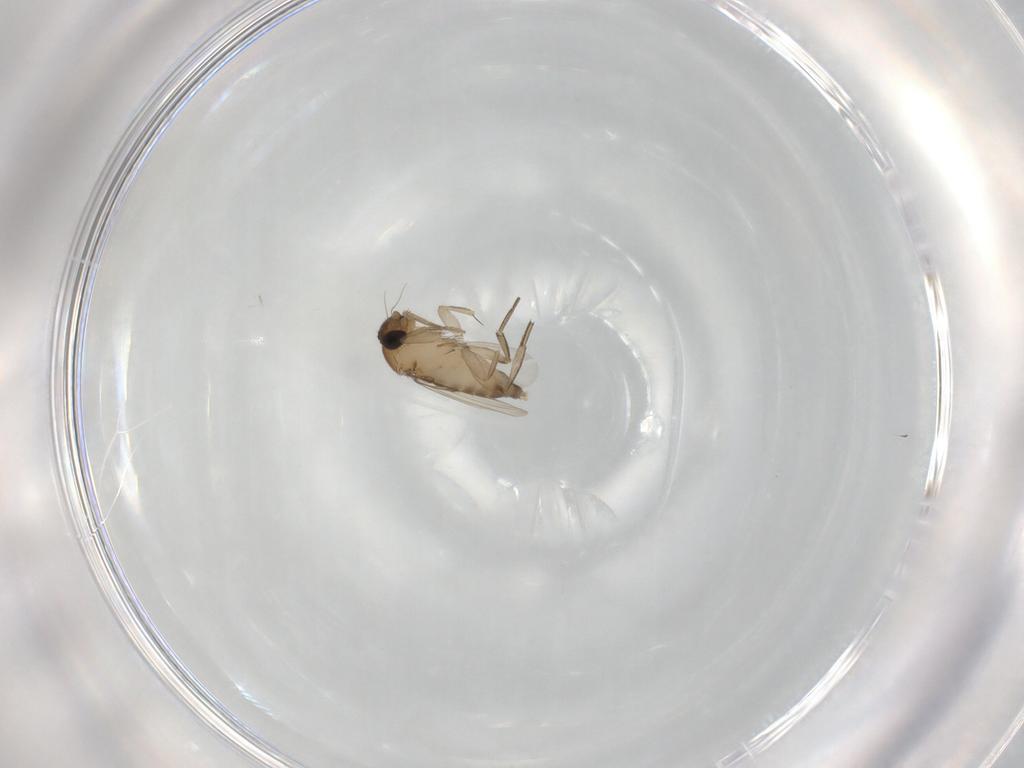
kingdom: Animalia
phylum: Arthropoda
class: Insecta
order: Diptera
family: Phoridae
